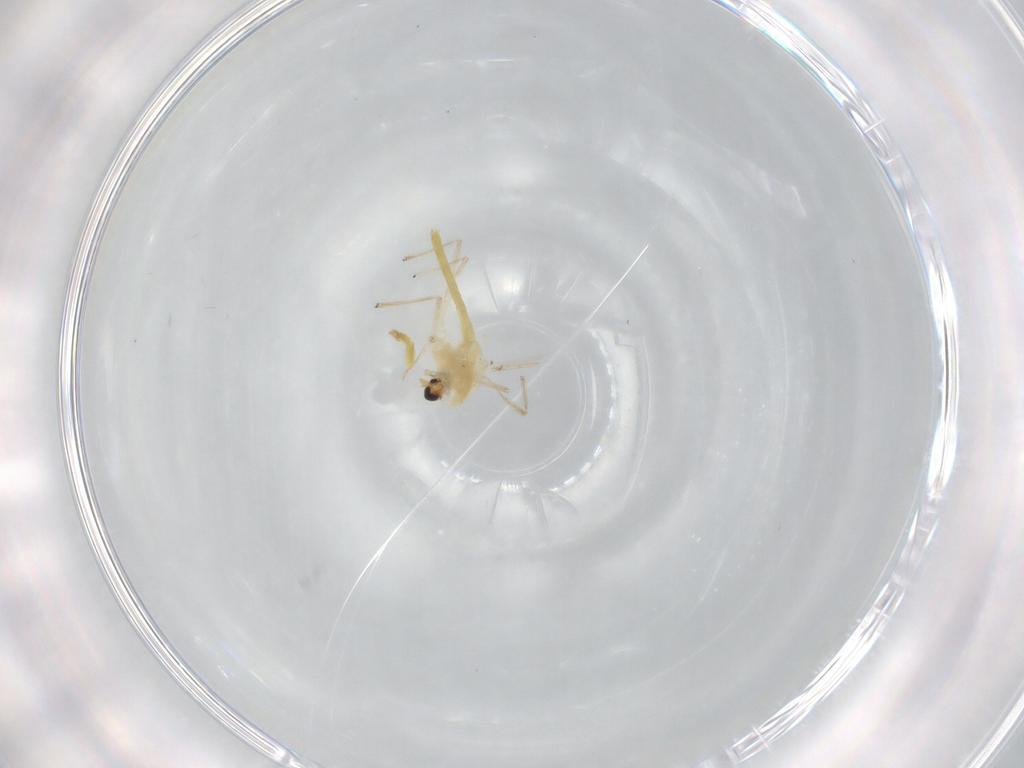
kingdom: Animalia
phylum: Arthropoda
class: Insecta
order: Diptera
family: Chironomidae
